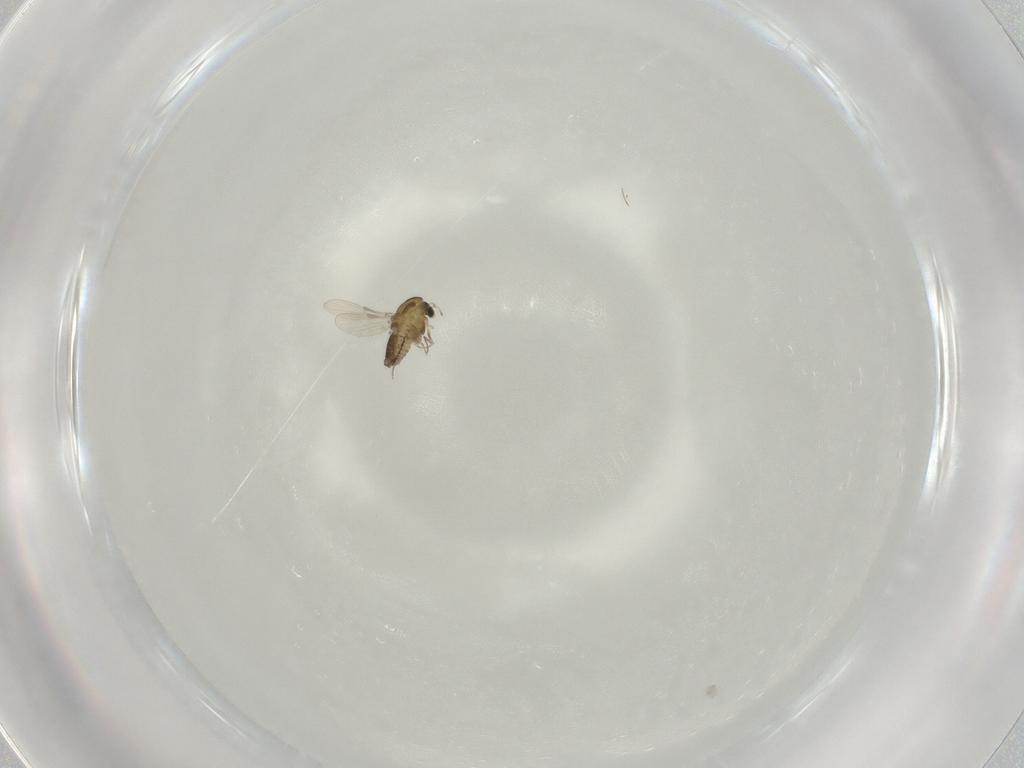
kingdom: Animalia
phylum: Arthropoda
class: Insecta
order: Diptera
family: Chironomidae
